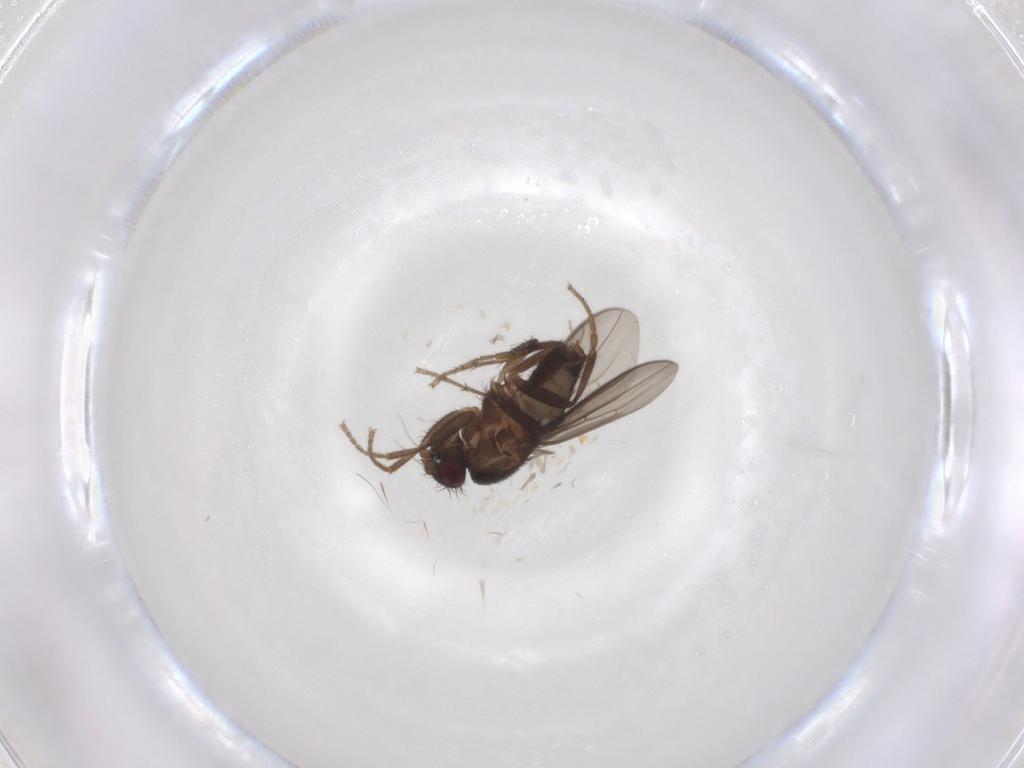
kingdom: Animalia
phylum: Arthropoda
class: Insecta
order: Diptera
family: Sphaeroceridae
